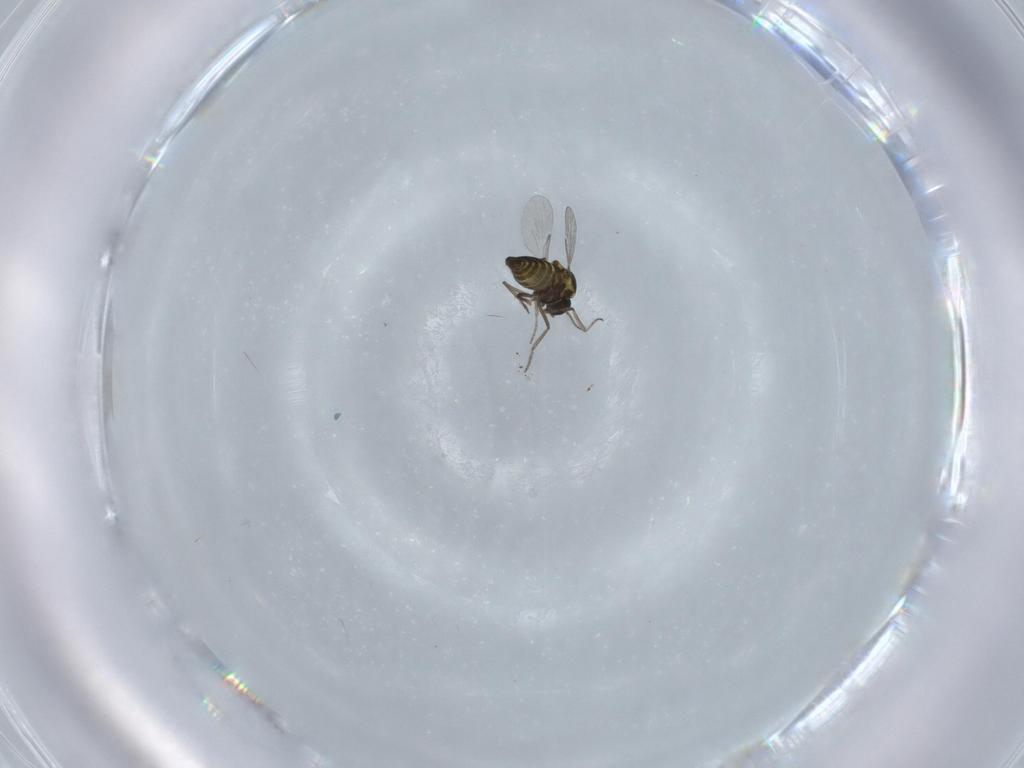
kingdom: Animalia
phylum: Arthropoda
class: Insecta
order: Diptera
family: Ceratopogonidae
